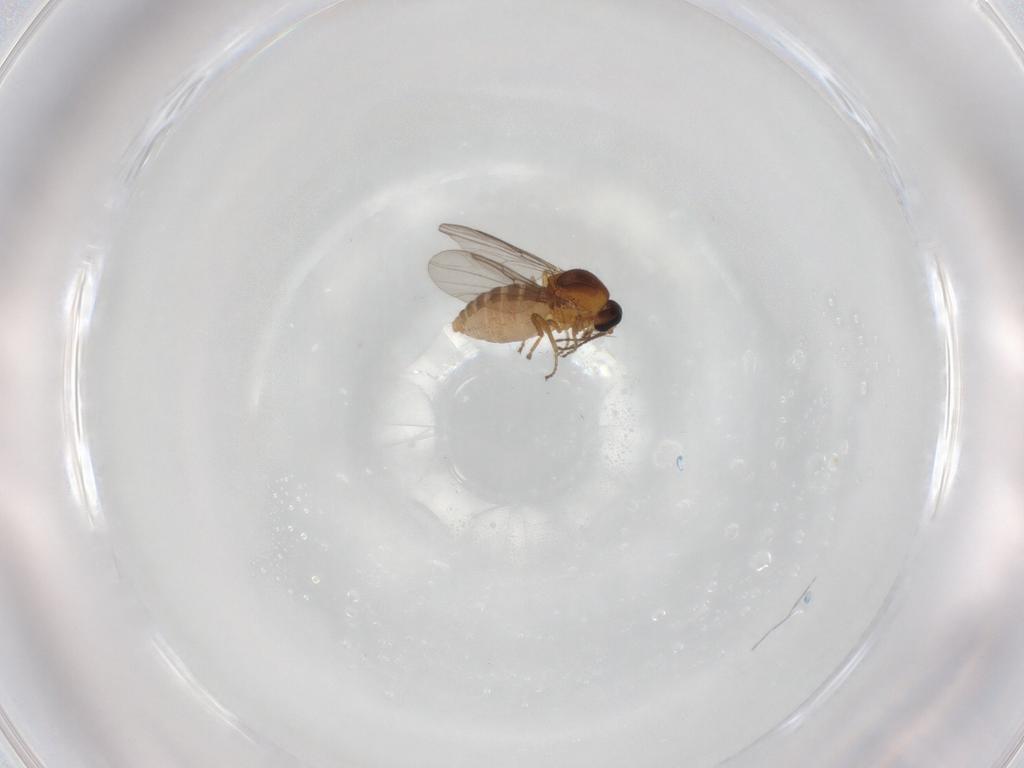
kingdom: Animalia
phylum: Arthropoda
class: Insecta
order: Diptera
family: Ceratopogonidae
